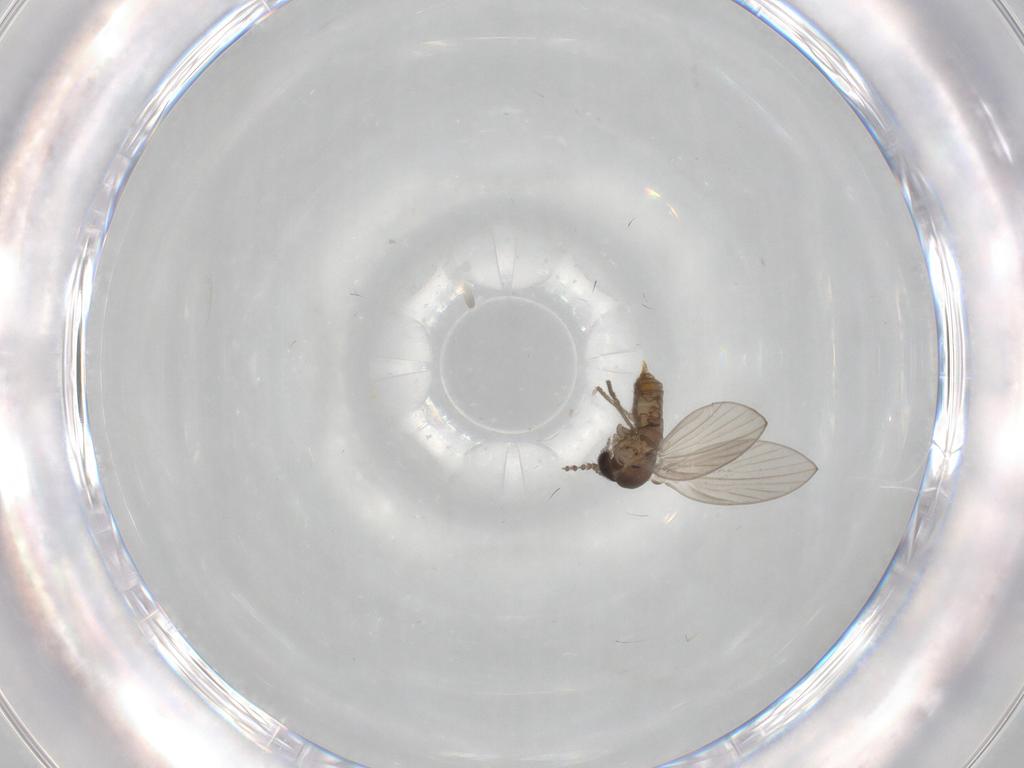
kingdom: Animalia
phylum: Arthropoda
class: Insecta
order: Diptera
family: Psychodidae
